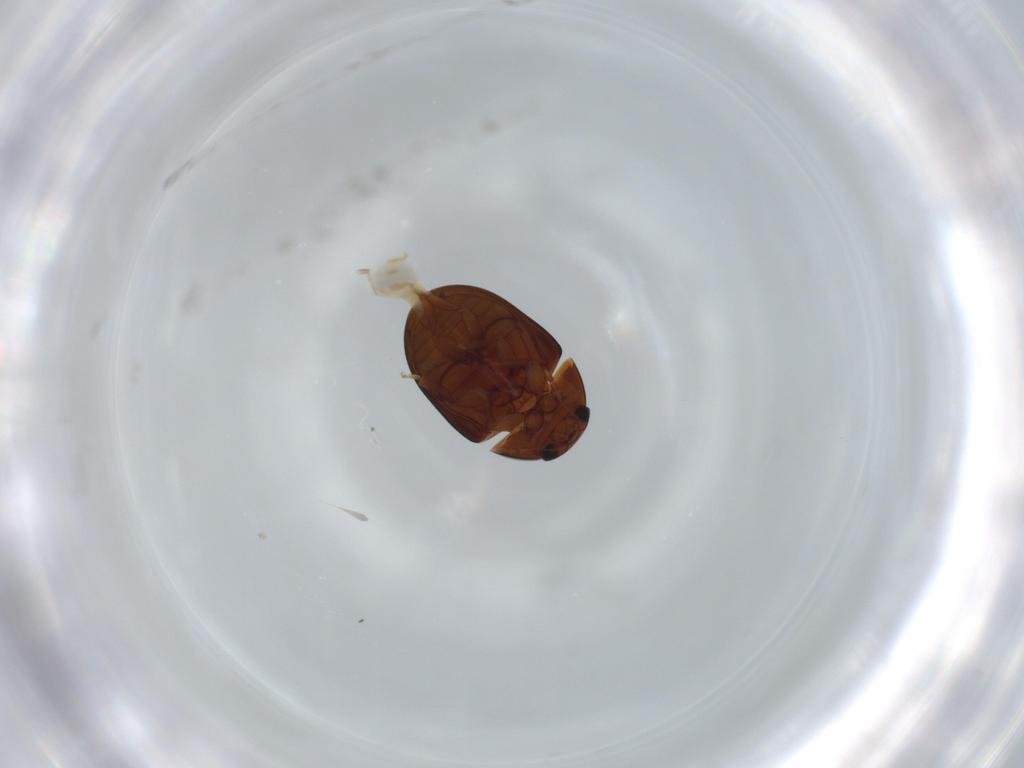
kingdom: Animalia
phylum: Arthropoda
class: Insecta
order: Coleoptera
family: Phalacridae
